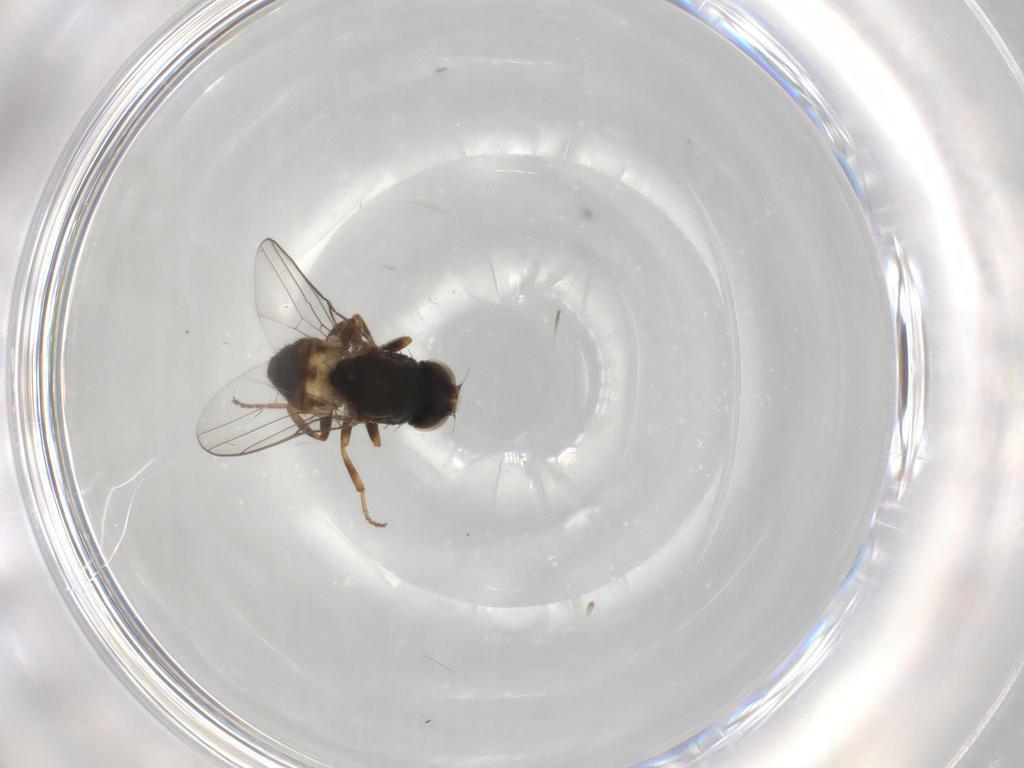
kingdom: Animalia
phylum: Arthropoda
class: Insecta
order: Diptera
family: Chloropidae
